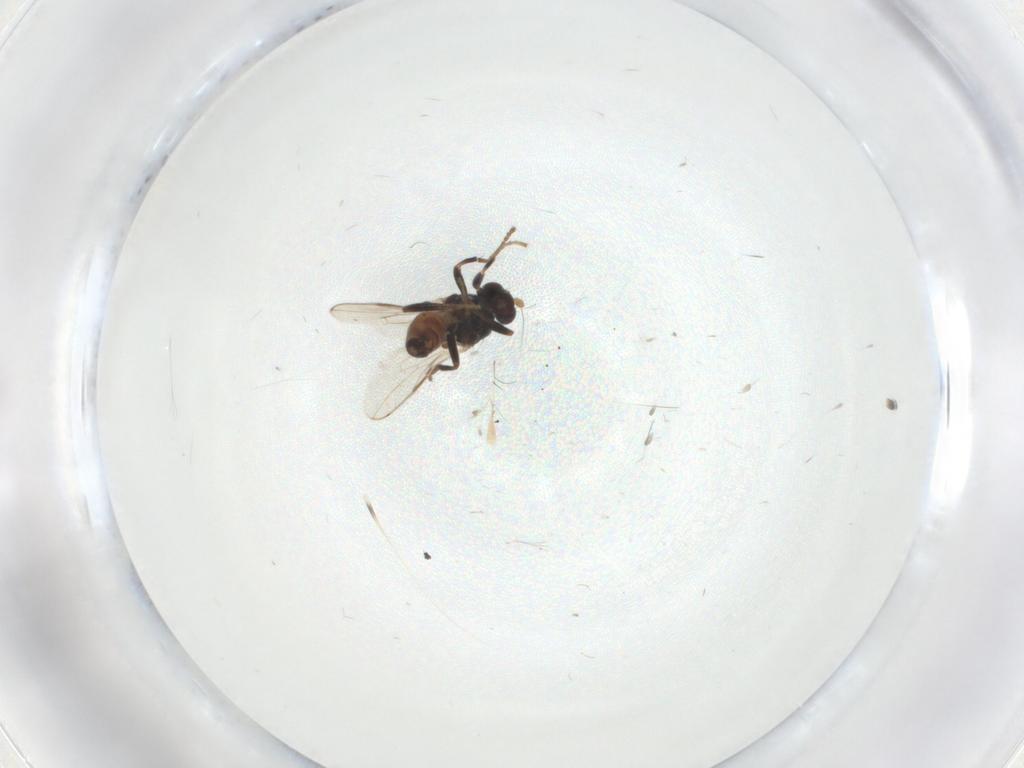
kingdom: Animalia
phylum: Arthropoda
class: Insecta
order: Diptera
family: Sphaeroceridae
